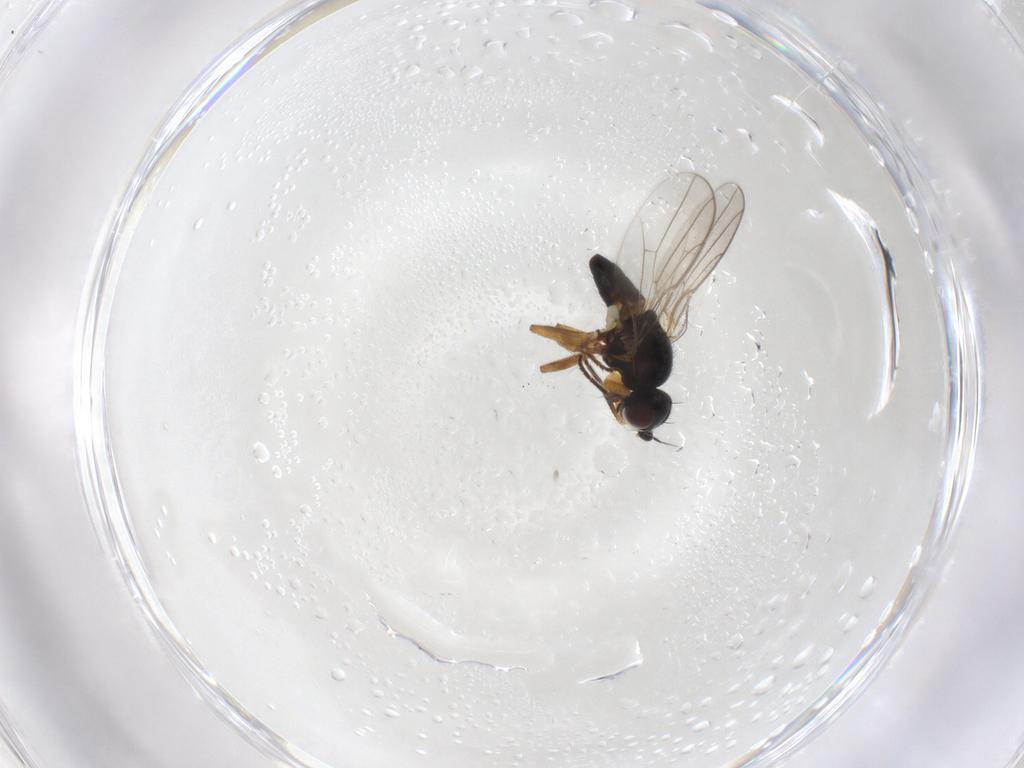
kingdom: Animalia
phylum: Arthropoda
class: Insecta
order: Diptera
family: Chloropidae
